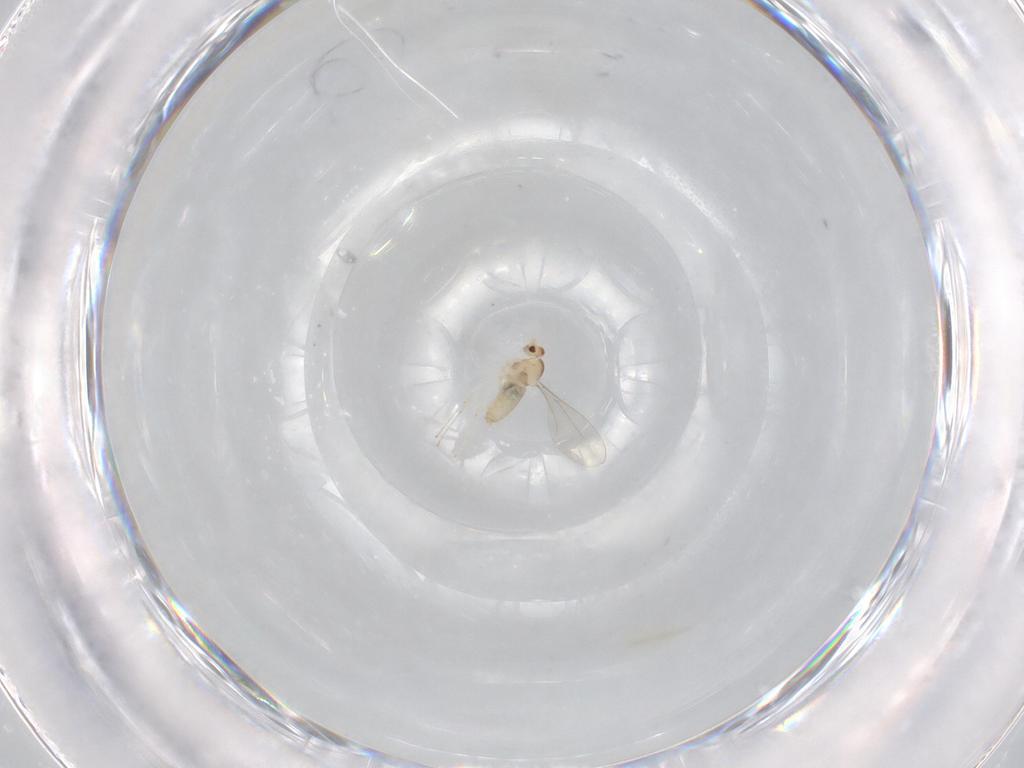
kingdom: Animalia
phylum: Arthropoda
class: Insecta
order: Diptera
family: Cecidomyiidae
